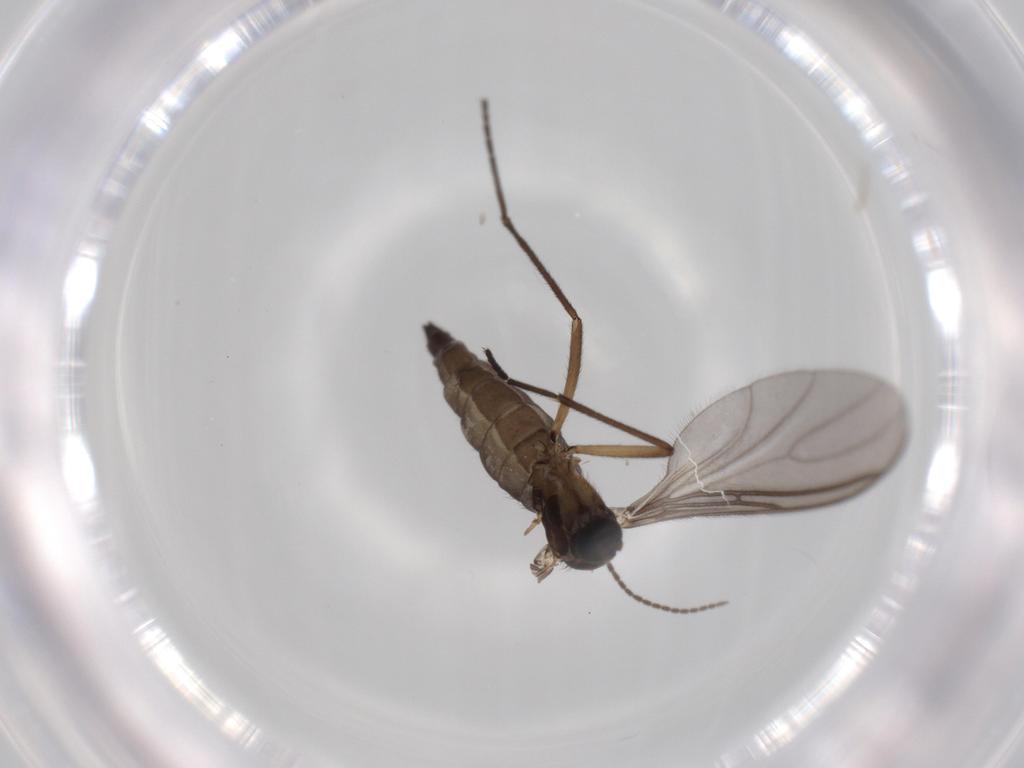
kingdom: Animalia
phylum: Arthropoda
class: Insecta
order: Diptera
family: Sciaridae
